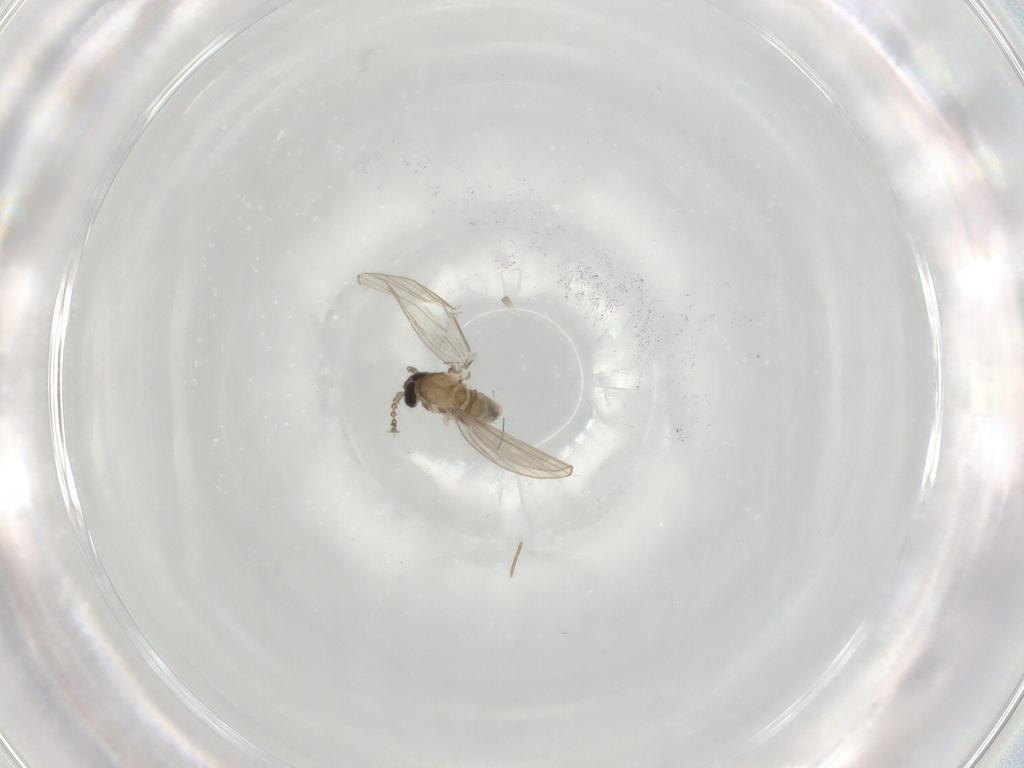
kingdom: Animalia
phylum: Arthropoda
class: Insecta
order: Diptera
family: Psychodidae
